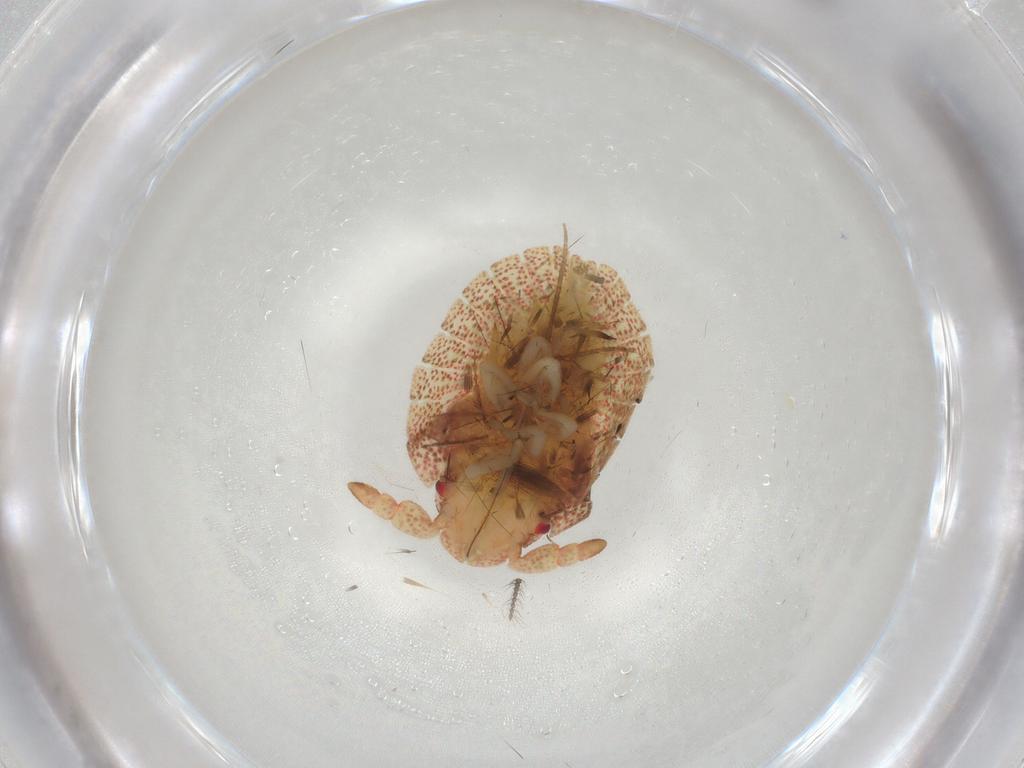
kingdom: Animalia
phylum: Arthropoda
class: Insecta
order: Hemiptera
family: Pentatomidae
